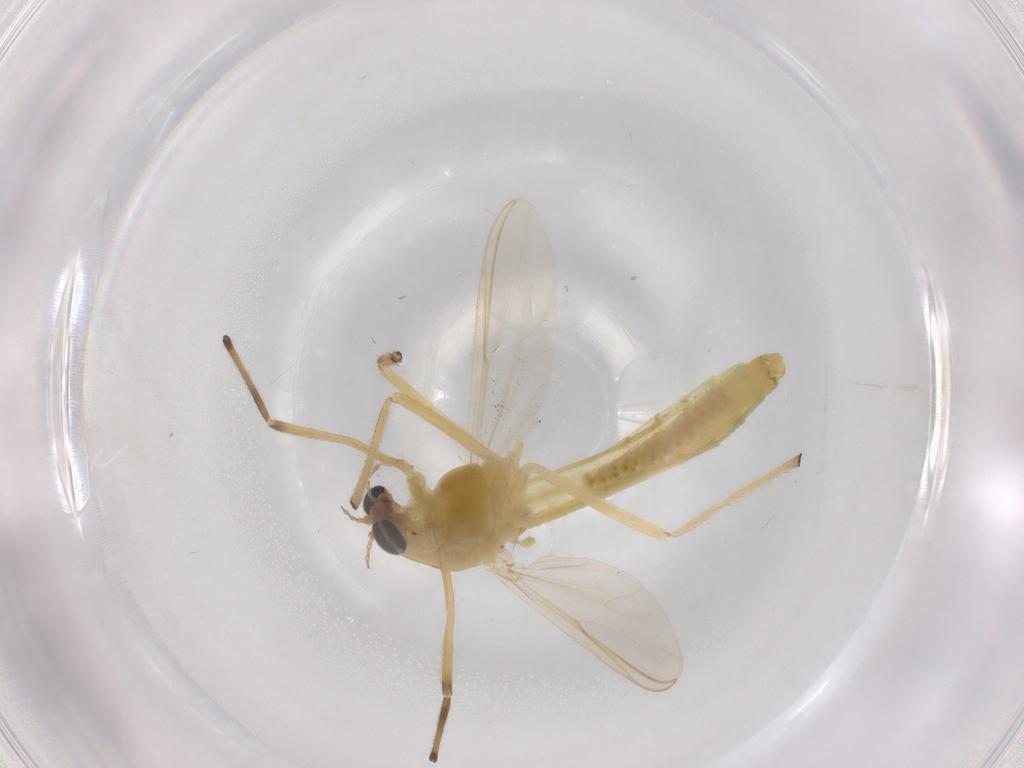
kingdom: Animalia
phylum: Arthropoda
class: Insecta
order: Diptera
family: Chironomidae
